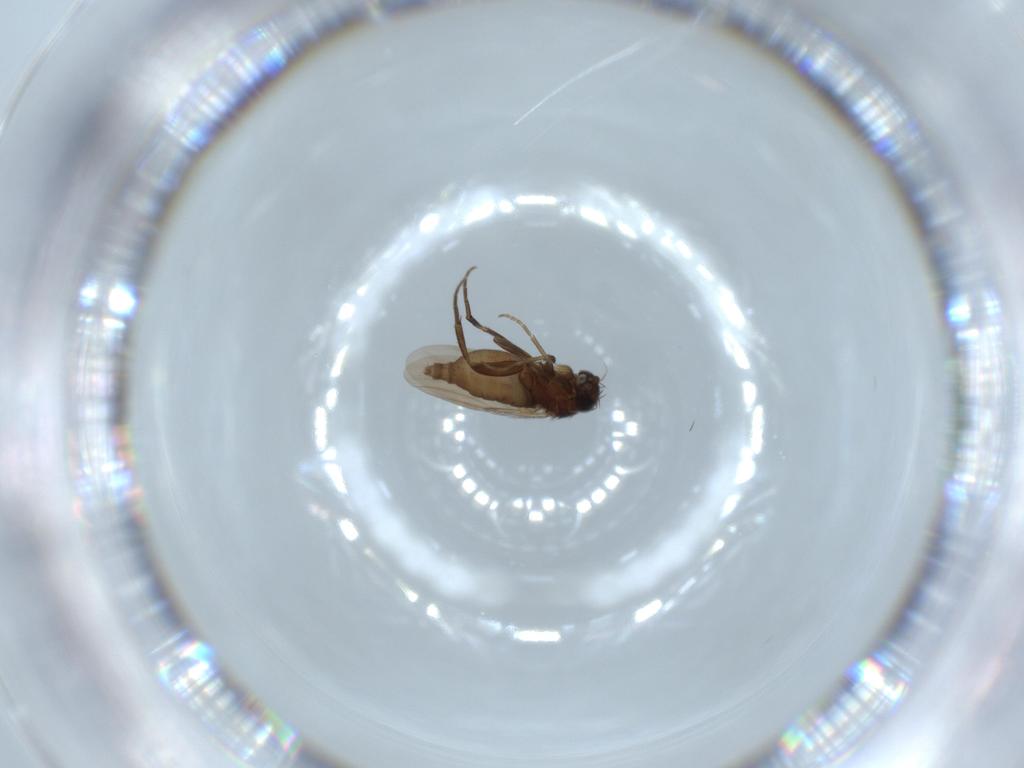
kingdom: Animalia
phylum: Arthropoda
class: Insecta
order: Diptera
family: Phoridae
